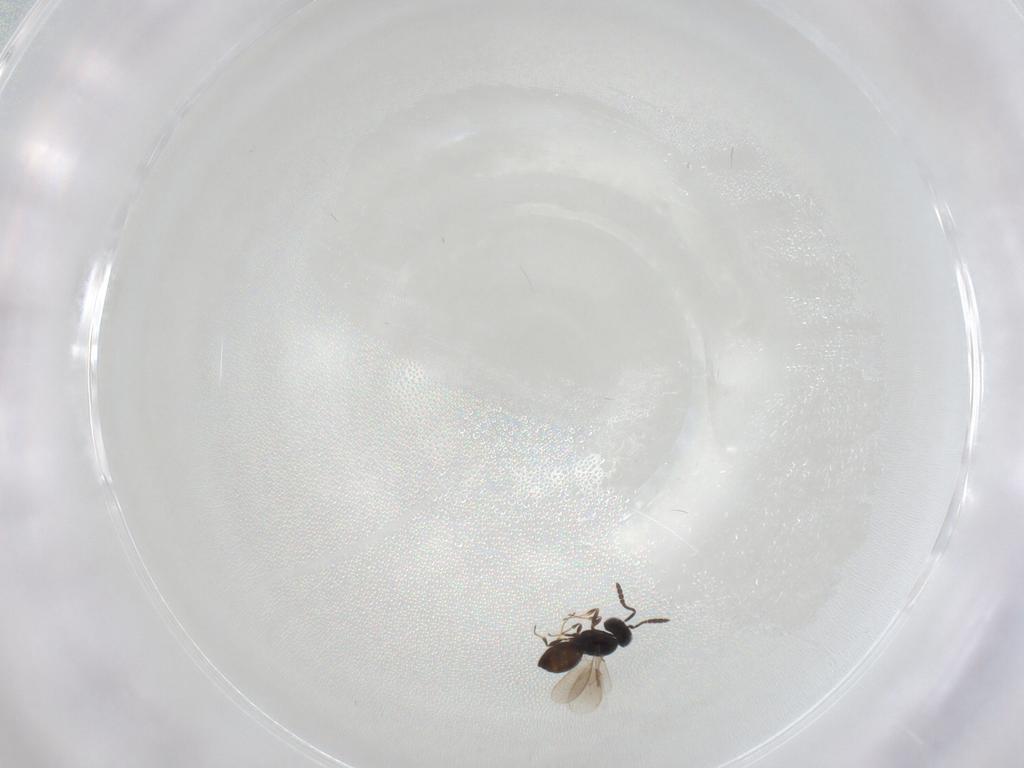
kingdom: Animalia
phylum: Arthropoda
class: Insecta
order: Hymenoptera
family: Scelionidae
